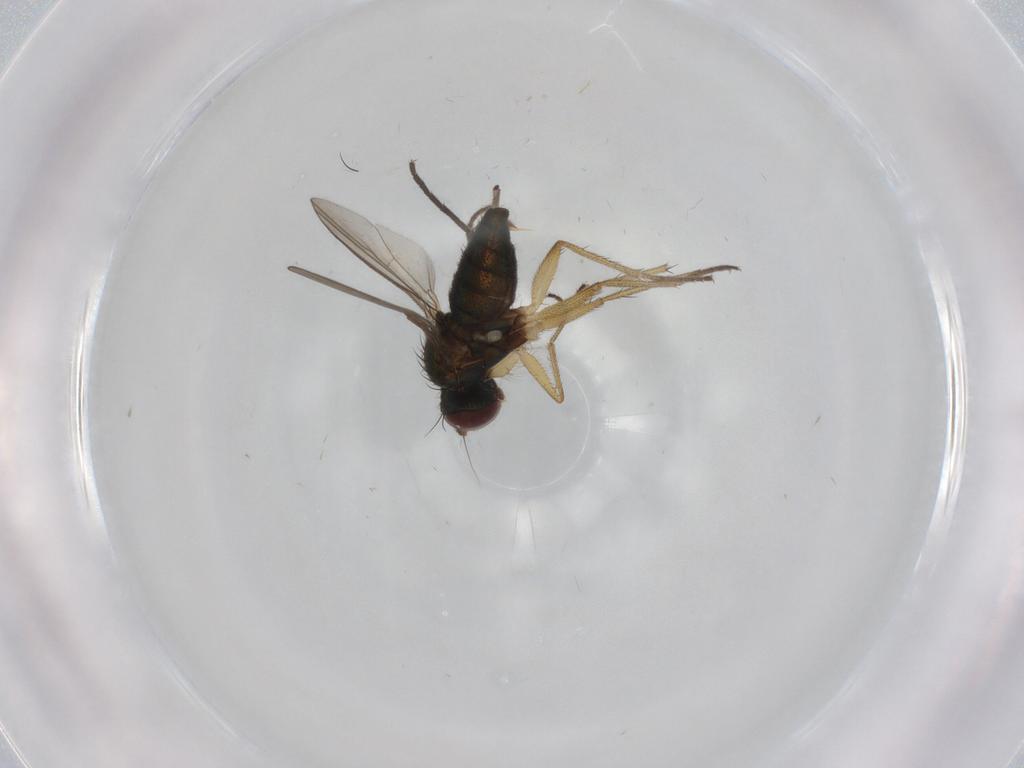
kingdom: Animalia
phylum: Arthropoda
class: Insecta
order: Diptera
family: Sciaridae
